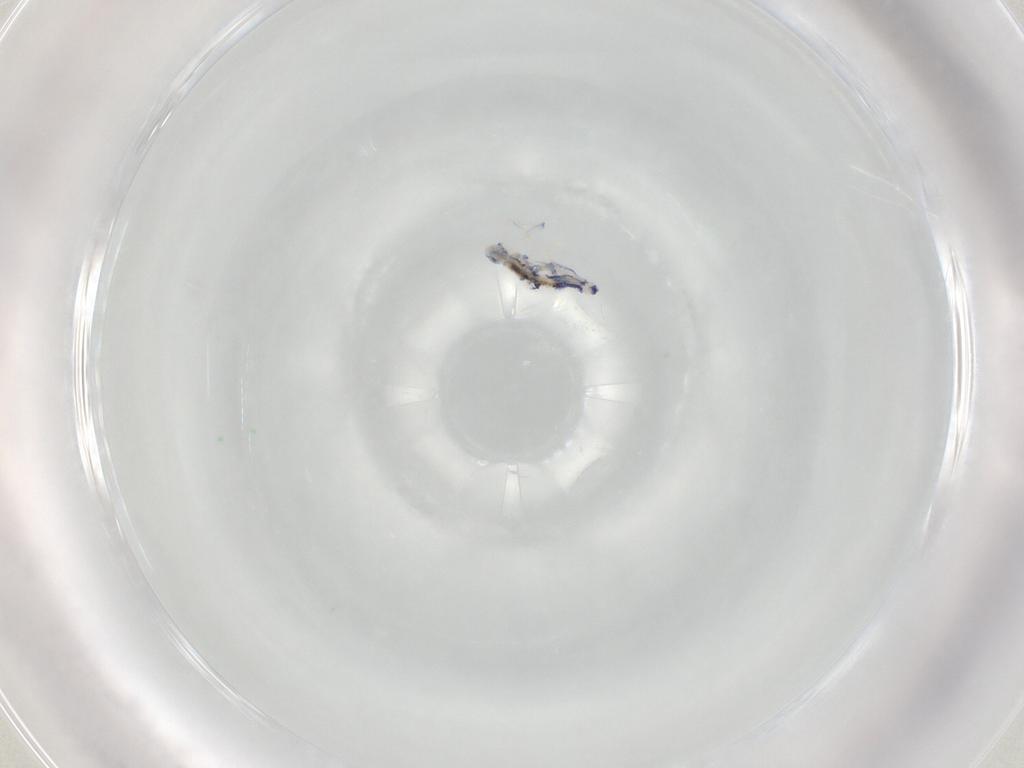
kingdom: Animalia
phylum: Arthropoda
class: Collembola
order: Entomobryomorpha
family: Entomobryidae
